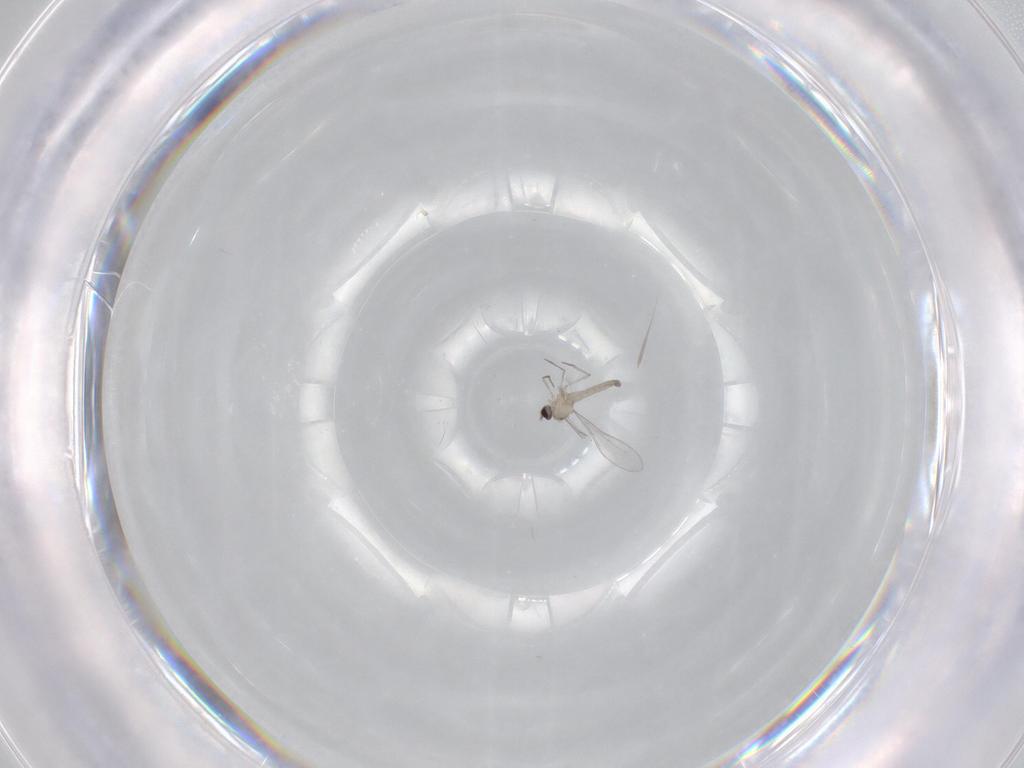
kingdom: Animalia
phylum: Arthropoda
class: Insecta
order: Diptera
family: Cecidomyiidae
